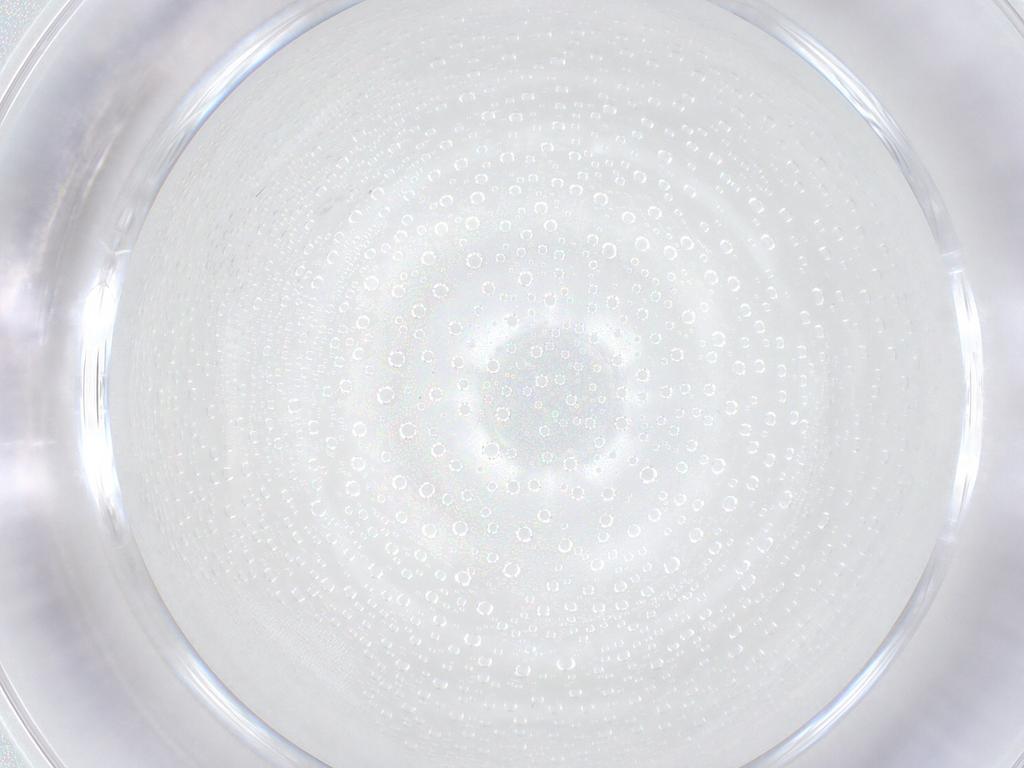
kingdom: Animalia
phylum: Arthropoda
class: Insecta
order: Hymenoptera
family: Mymaridae
